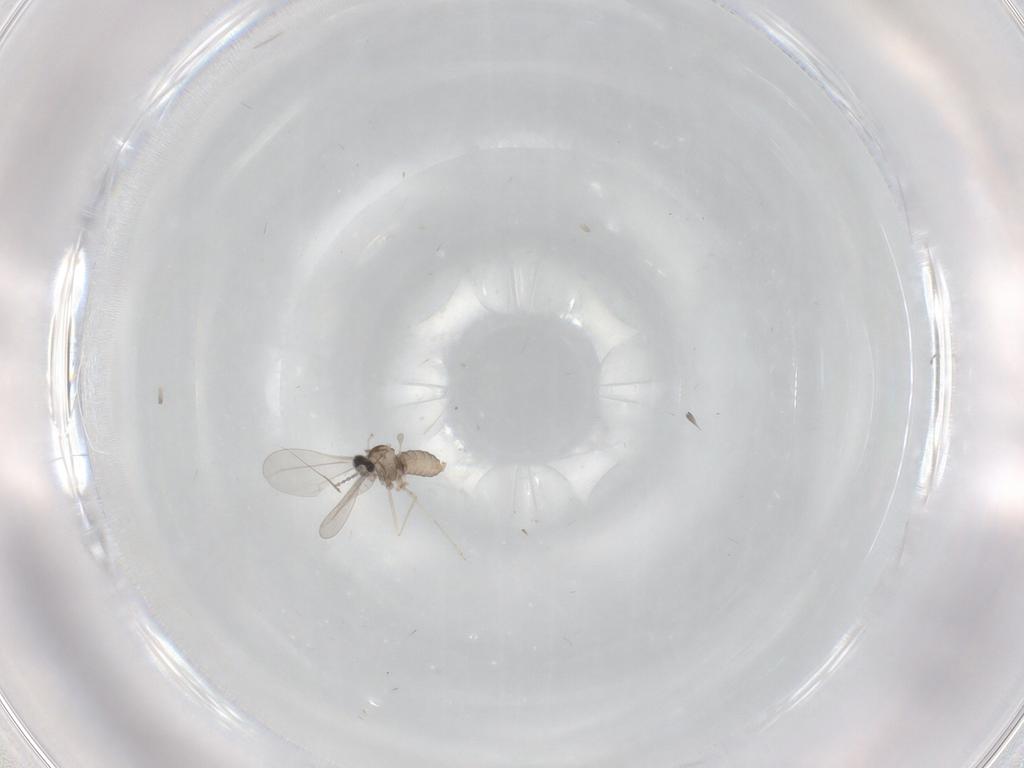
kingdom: Animalia
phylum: Arthropoda
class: Insecta
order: Diptera
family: Cecidomyiidae
